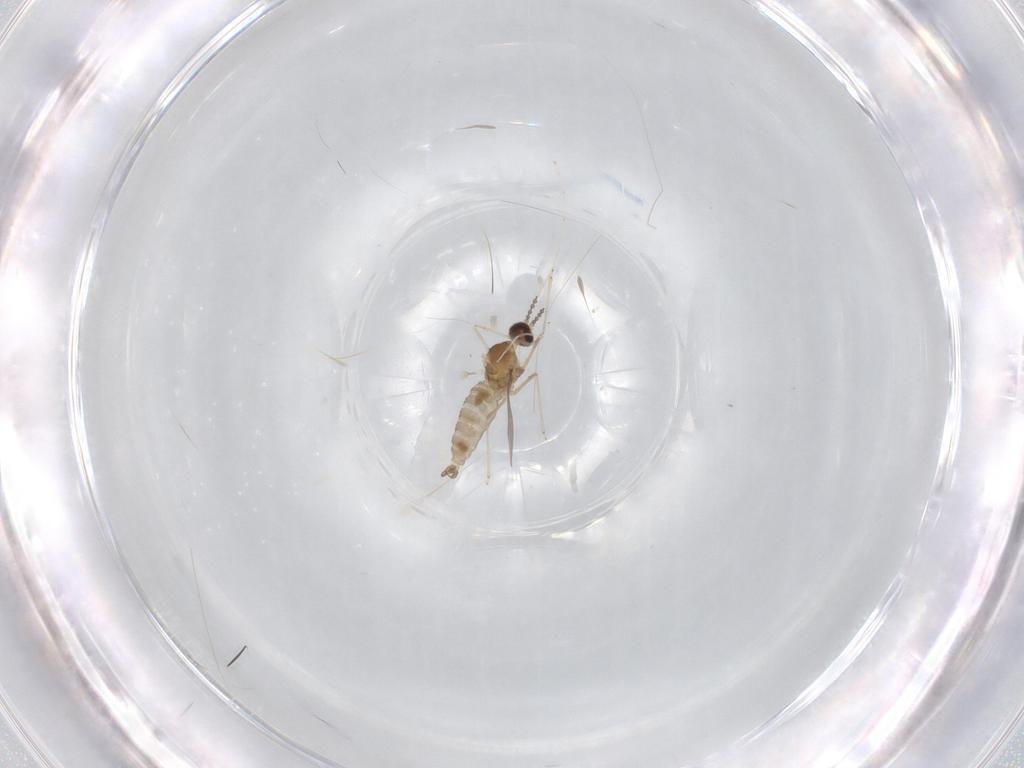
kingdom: Animalia
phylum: Arthropoda
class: Insecta
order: Diptera
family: Cecidomyiidae
